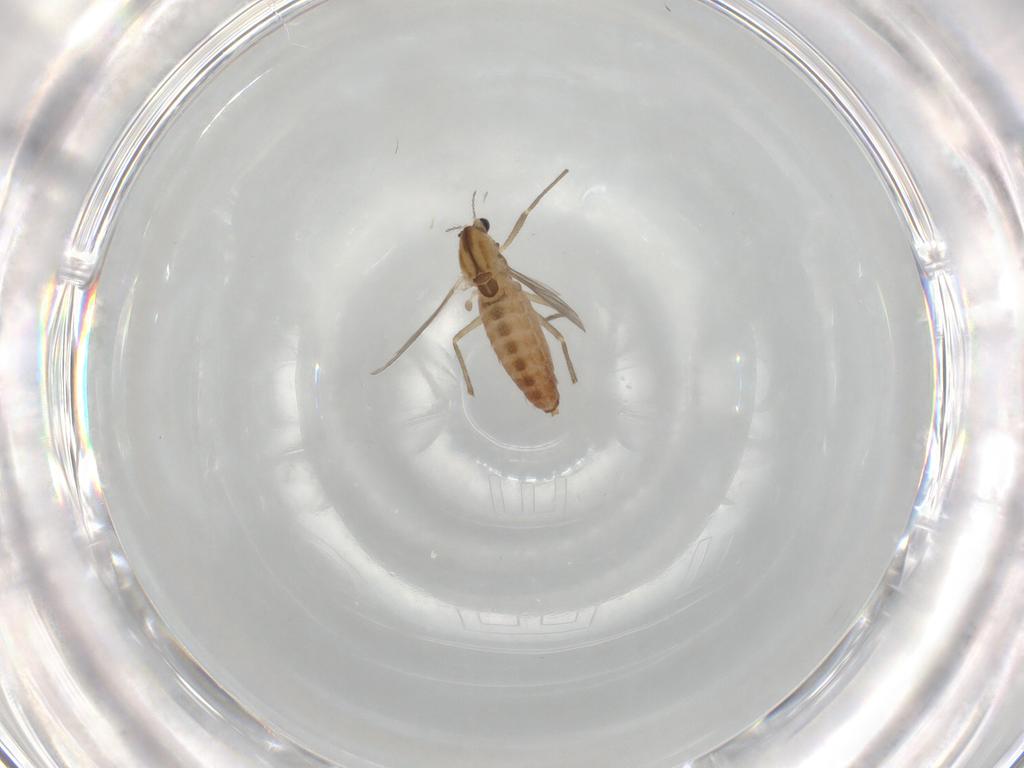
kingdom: Animalia
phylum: Arthropoda
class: Insecta
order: Diptera
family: Chironomidae
